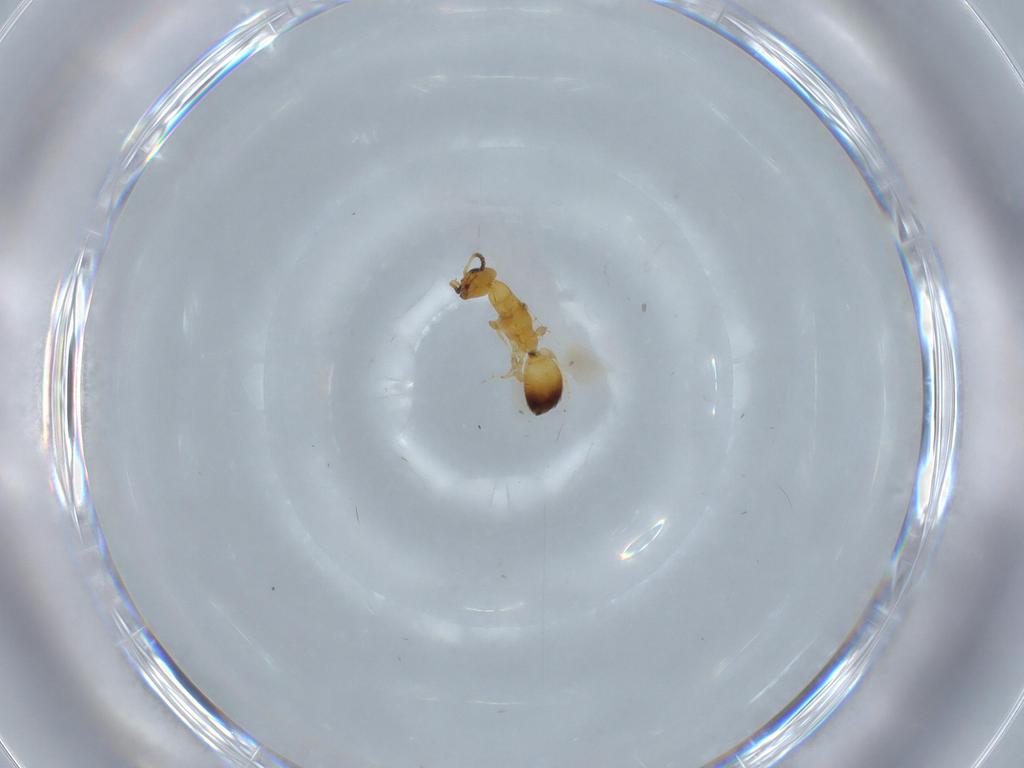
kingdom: Animalia
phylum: Arthropoda
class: Insecta
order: Hymenoptera
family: Bethylidae
